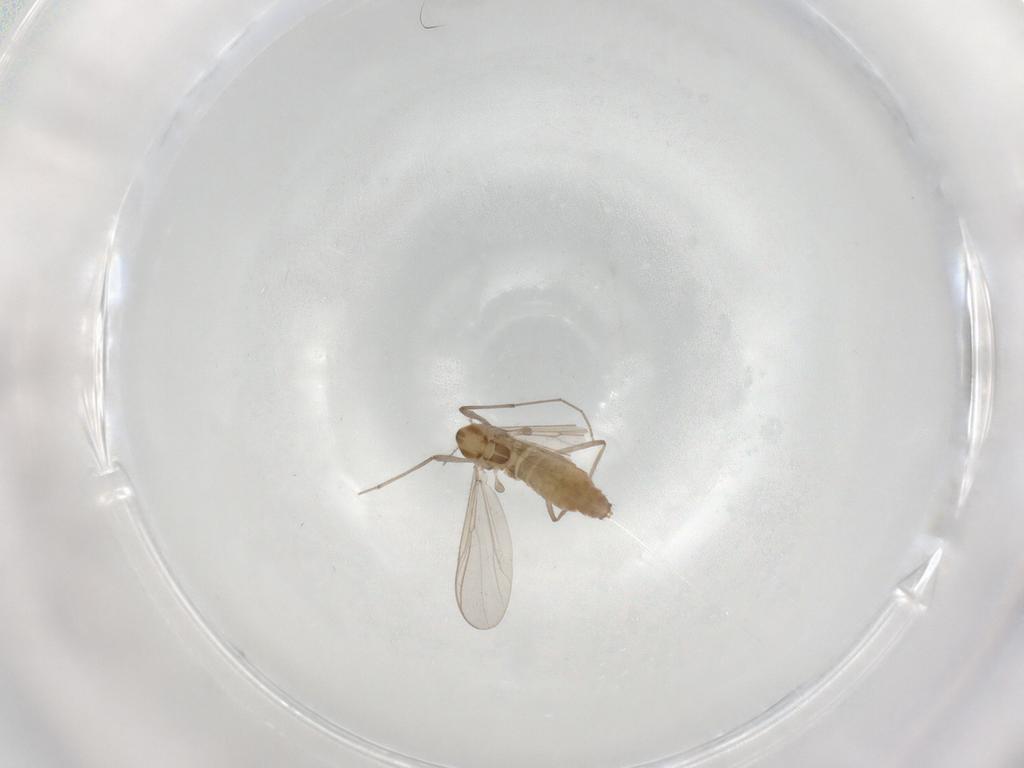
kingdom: Animalia
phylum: Arthropoda
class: Insecta
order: Diptera
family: Chironomidae
